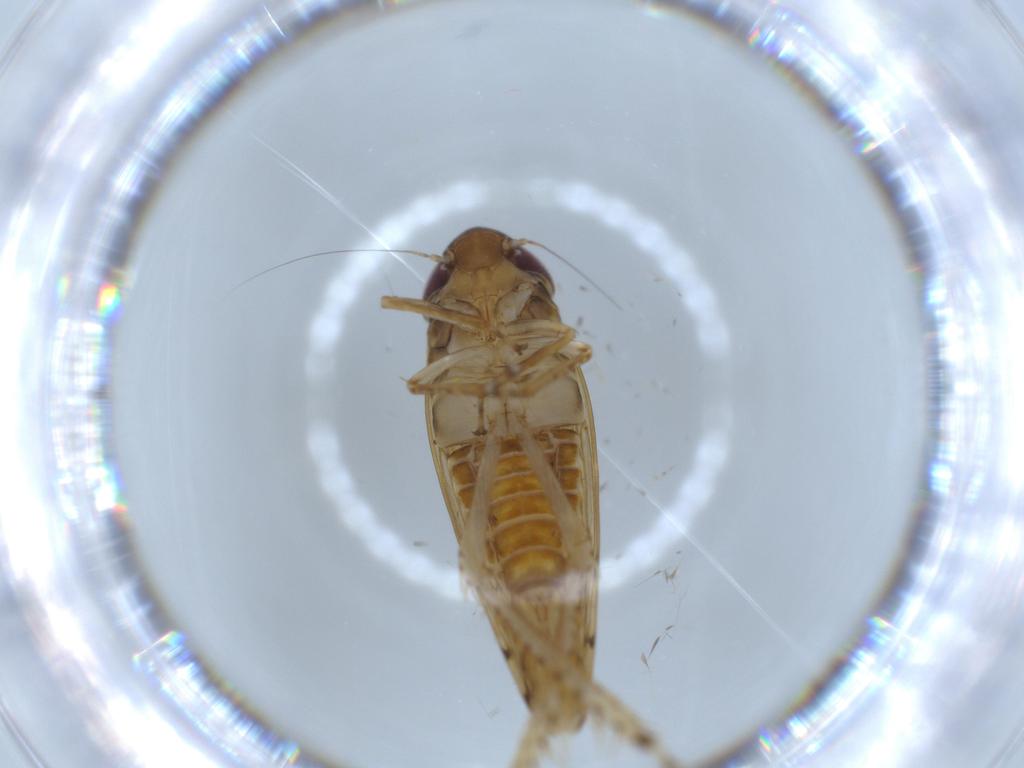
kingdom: Animalia
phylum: Arthropoda
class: Insecta
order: Hemiptera
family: Cicadellidae
